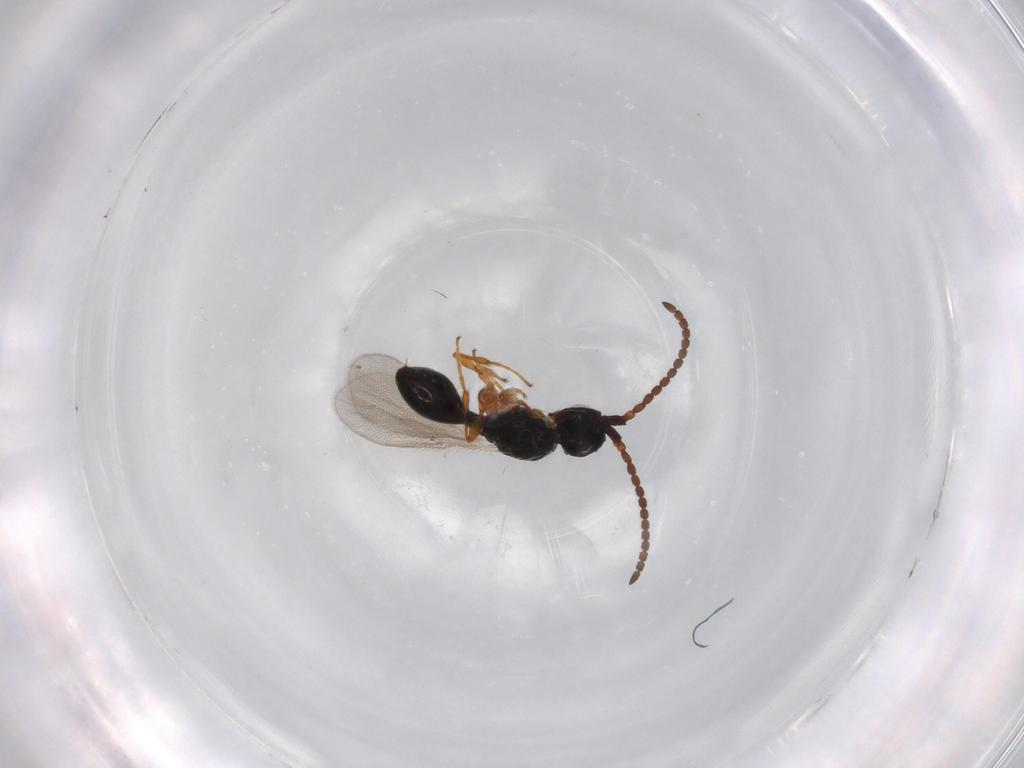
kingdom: Animalia
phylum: Arthropoda
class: Insecta
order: Hymenoptera
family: Diapriidae
